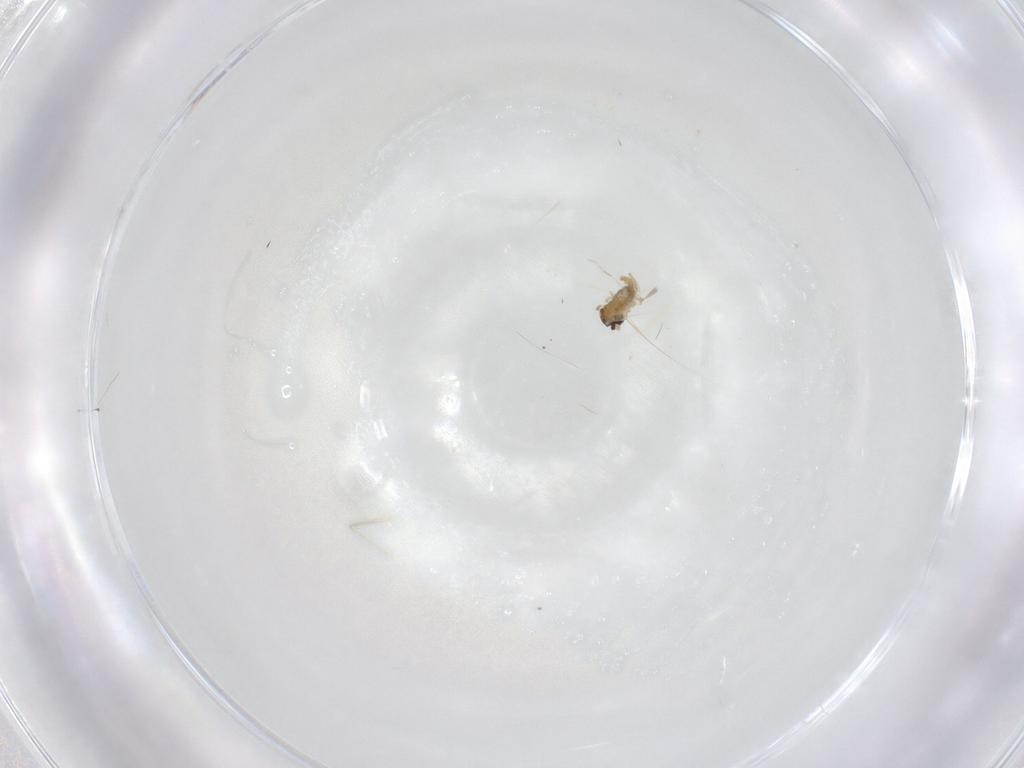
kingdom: Animalia
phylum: Arthropoda
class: Insecta
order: Diptera
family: Cecidomyiidae
